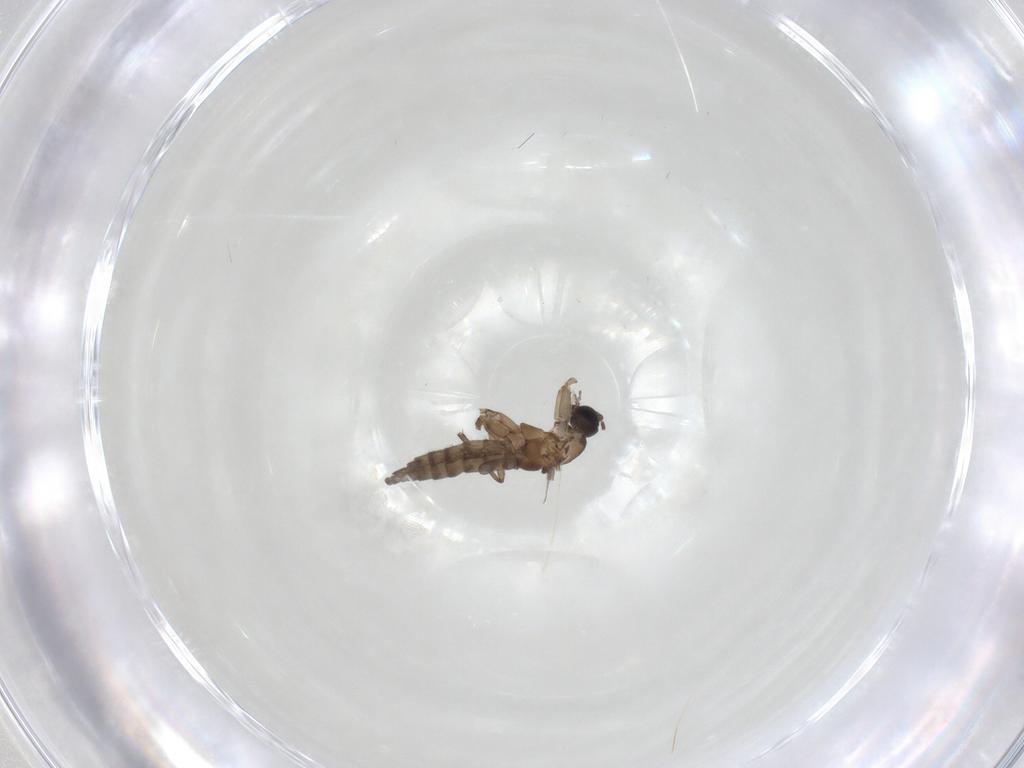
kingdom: Animalia
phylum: Arthropoda
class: Insecta
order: Diptera
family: Sciaridae
